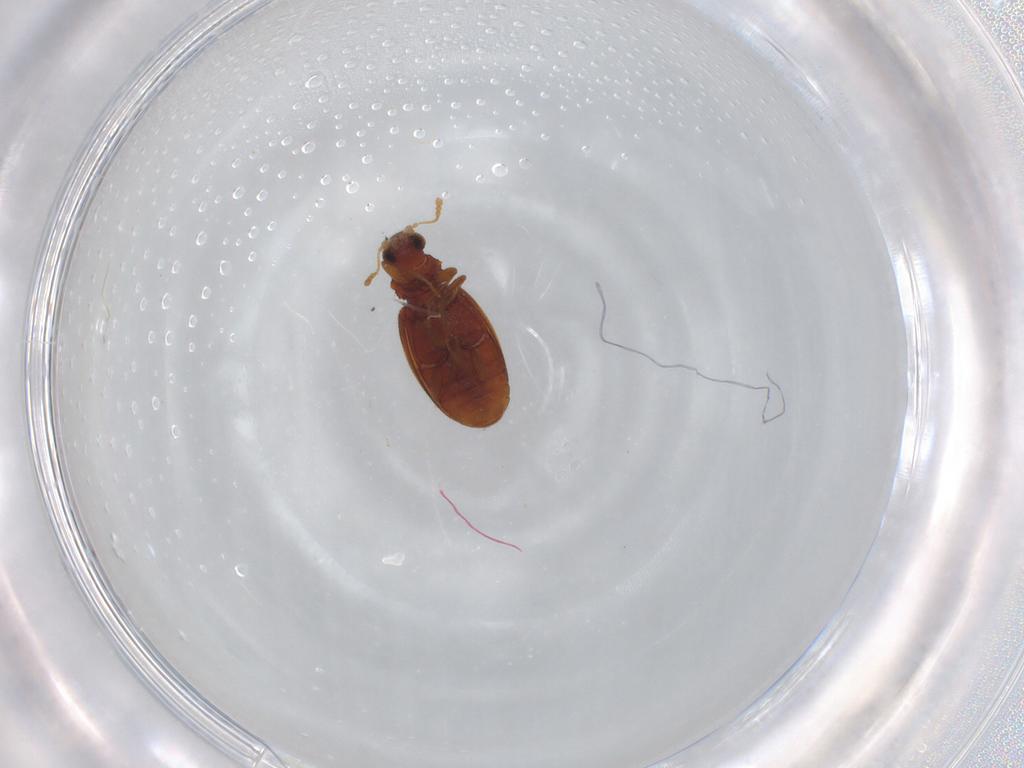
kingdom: Animalia
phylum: Arthropoda
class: Insecta
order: Coleoptera
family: Latridiidae
